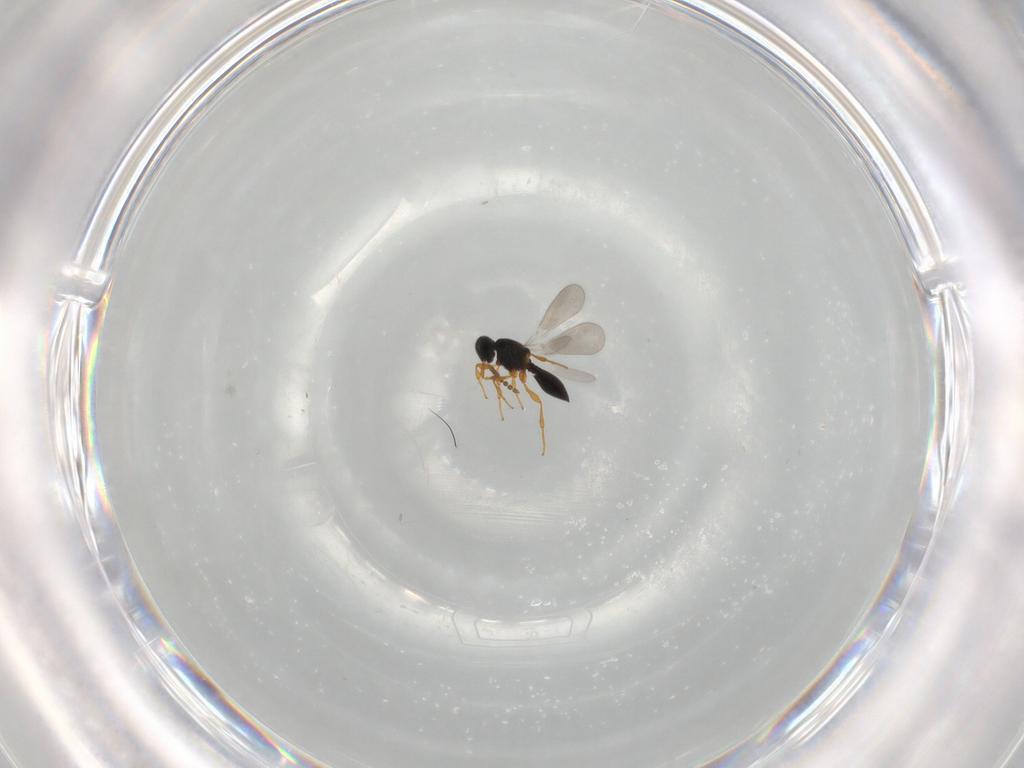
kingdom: Animalia
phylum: Arthropoda
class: Insecta
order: Hymenoptera
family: Platygastridae
